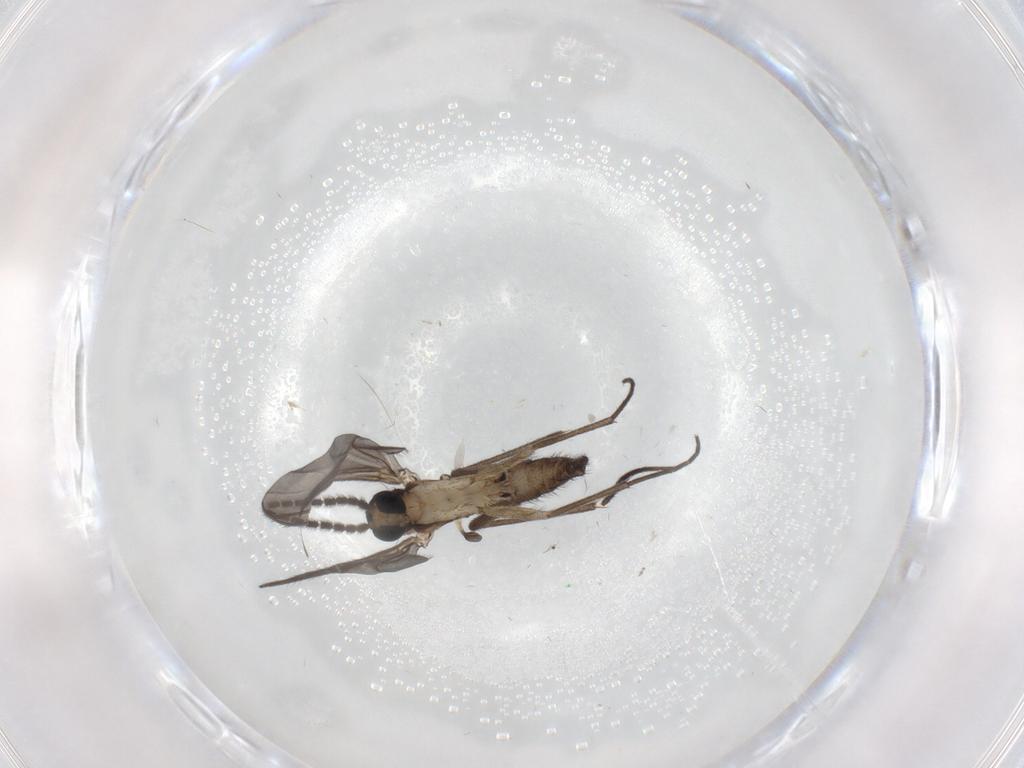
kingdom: Animalia
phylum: Arthropoda
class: Insecta
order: Diptera
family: Sciaridae
